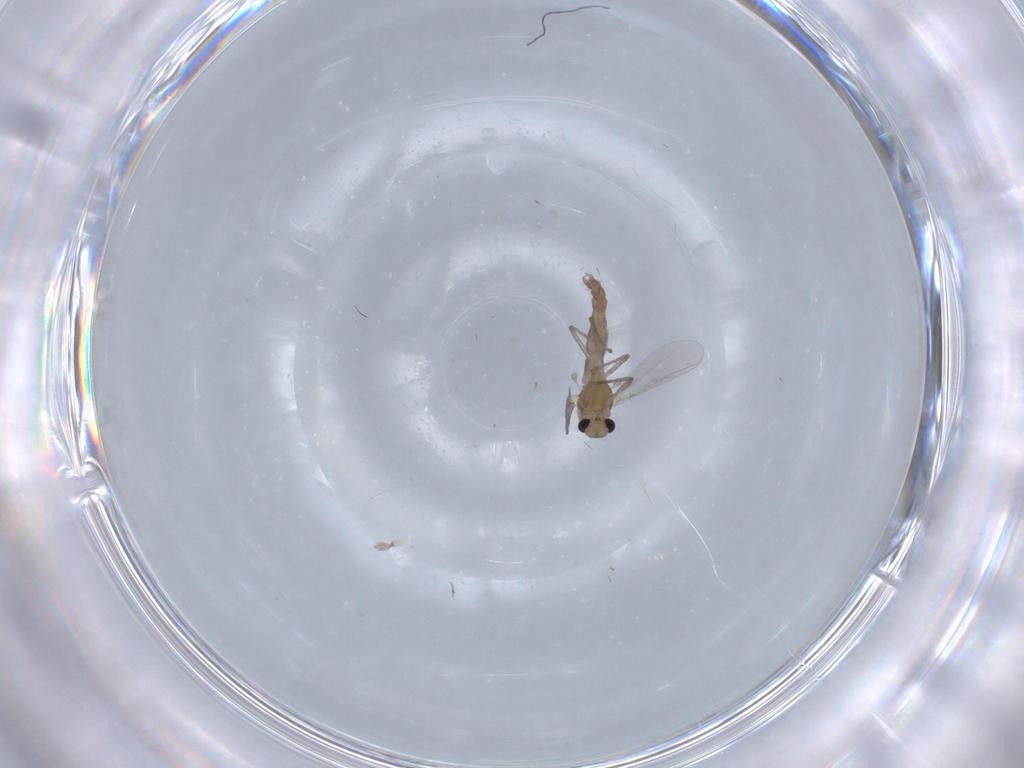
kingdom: Animalia
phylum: Arthropoda
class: Insecta
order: Diptera
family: Chironomidae
